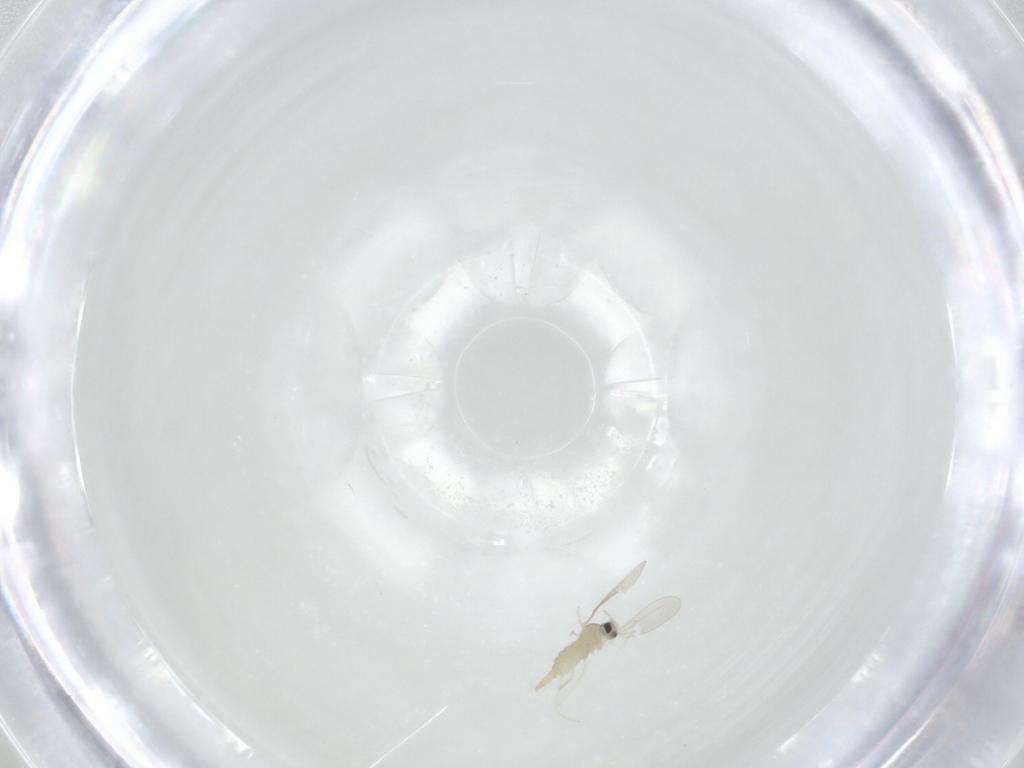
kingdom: Animalia
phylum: Arthropoda
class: Insecta
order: Diptera
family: Cecidomyiidae
